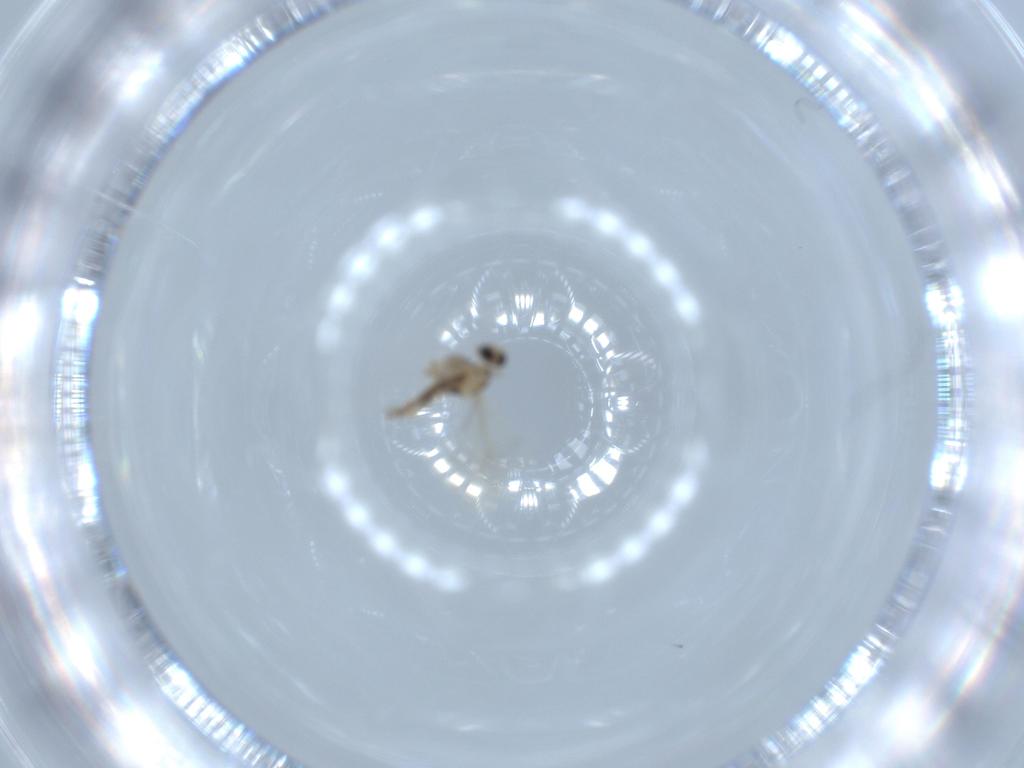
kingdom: Animalia
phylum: Arthropoda
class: Insecta
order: Diptera
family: Cecidomyiidae
